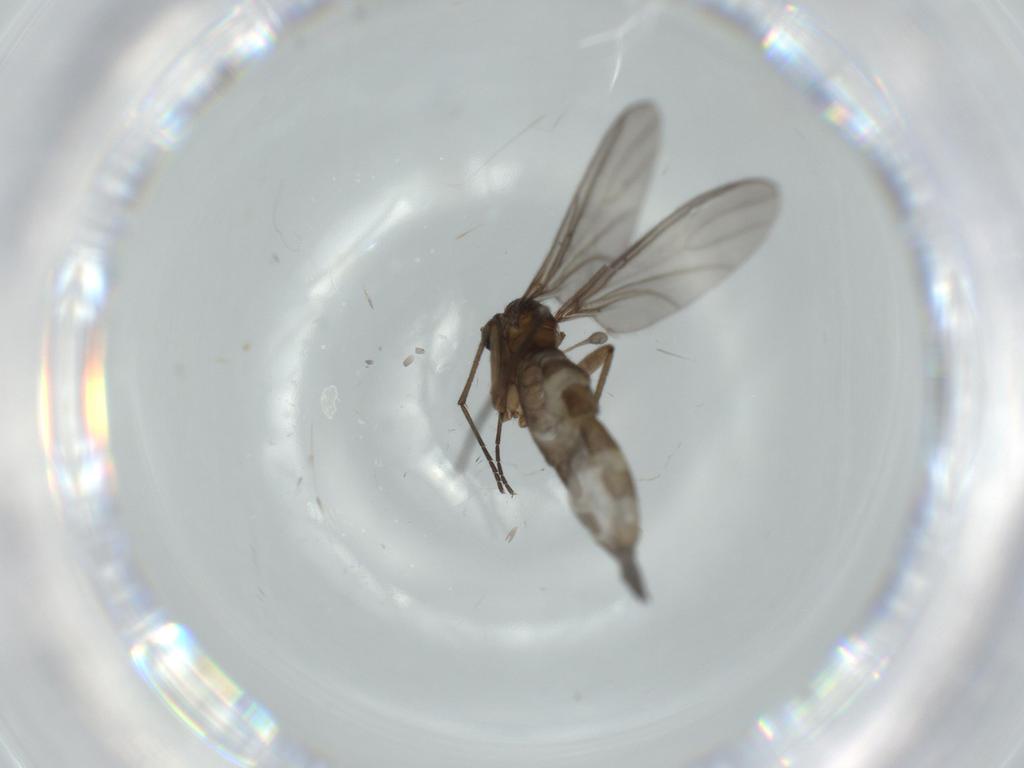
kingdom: Animalia
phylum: Arthropoda
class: Insecta
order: Diptera
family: Sciaridae
